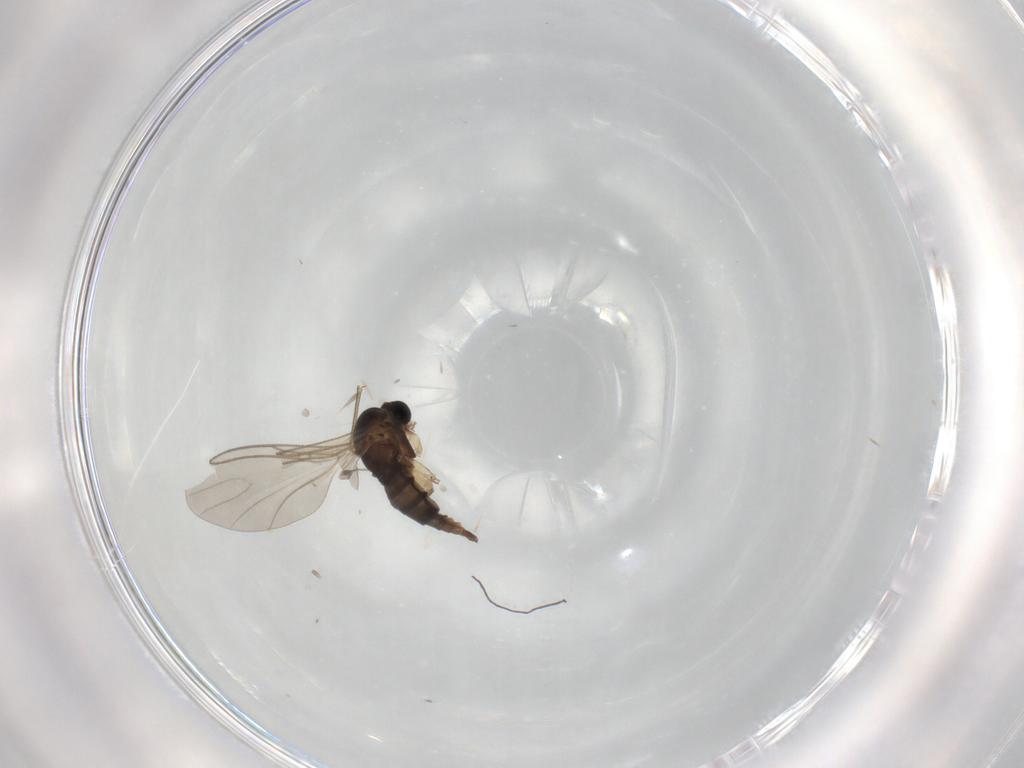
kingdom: Animalia
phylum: Arthropoda
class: Insecta
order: Diptera
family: Sciaridae
